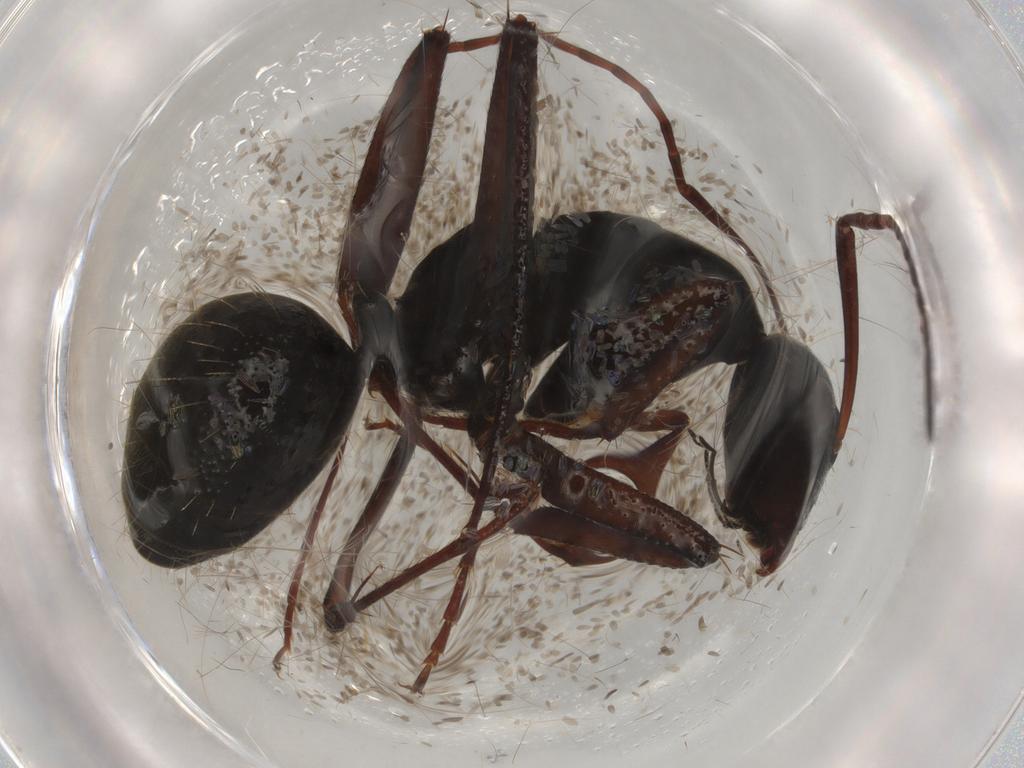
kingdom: Animalia
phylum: Arthropoda
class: Insecta
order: Hymenoptera
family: Formicidae
